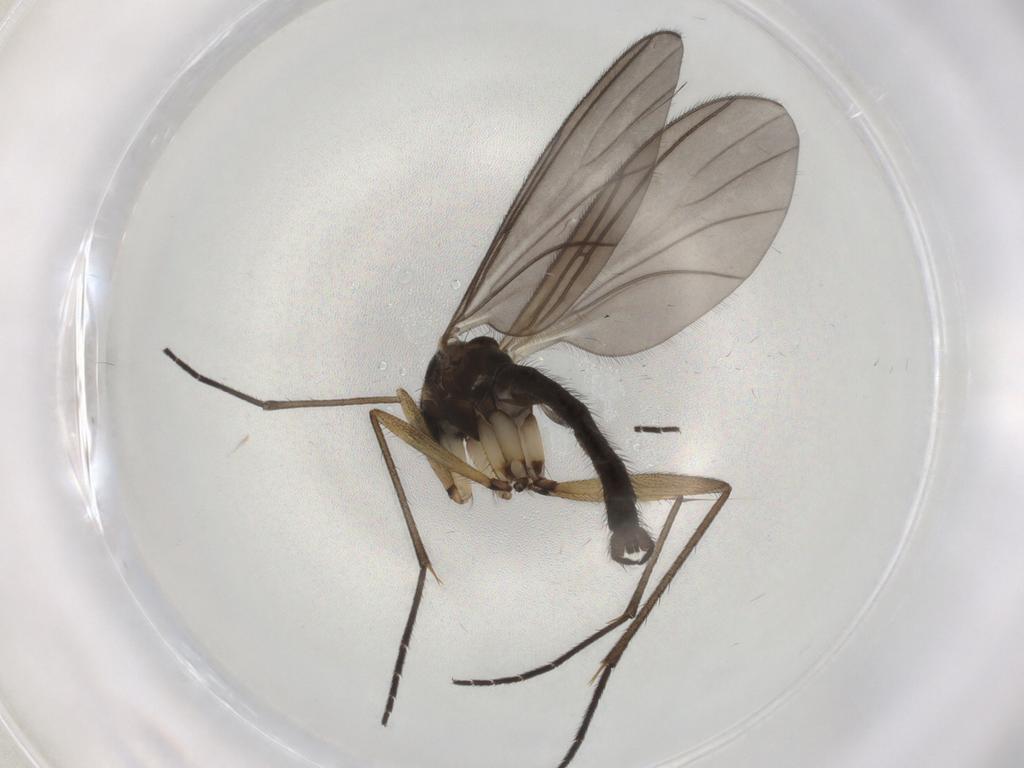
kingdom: Animalia
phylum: Arthropoda
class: Insecta
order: Diptera
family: Sciaridae
